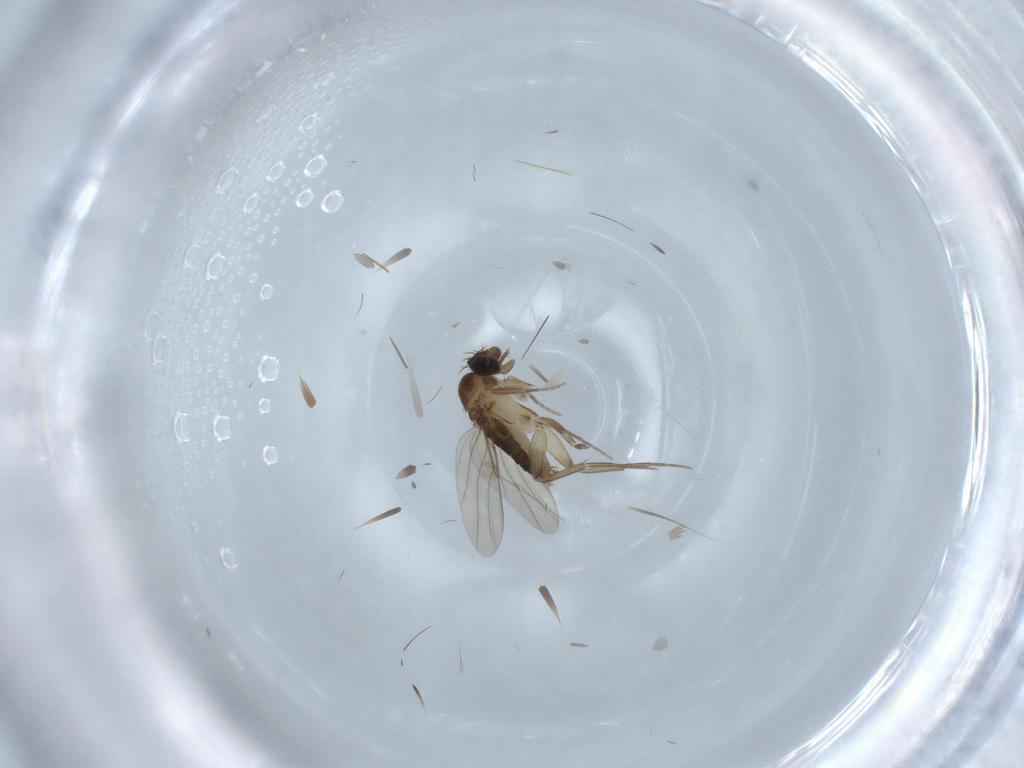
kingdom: Animalia
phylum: Arthropoda
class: Insecta
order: Diptera
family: Phoridae
